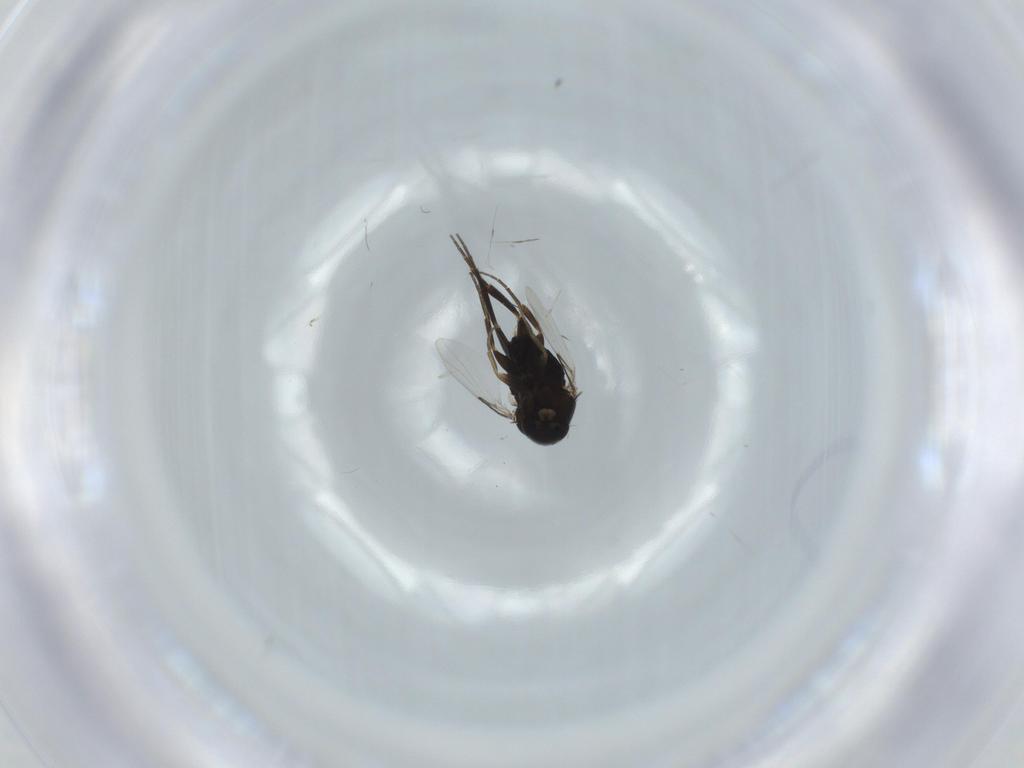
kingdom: Animalia
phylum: Arthropoda
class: Insecta
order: Diptera
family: Phoridae
